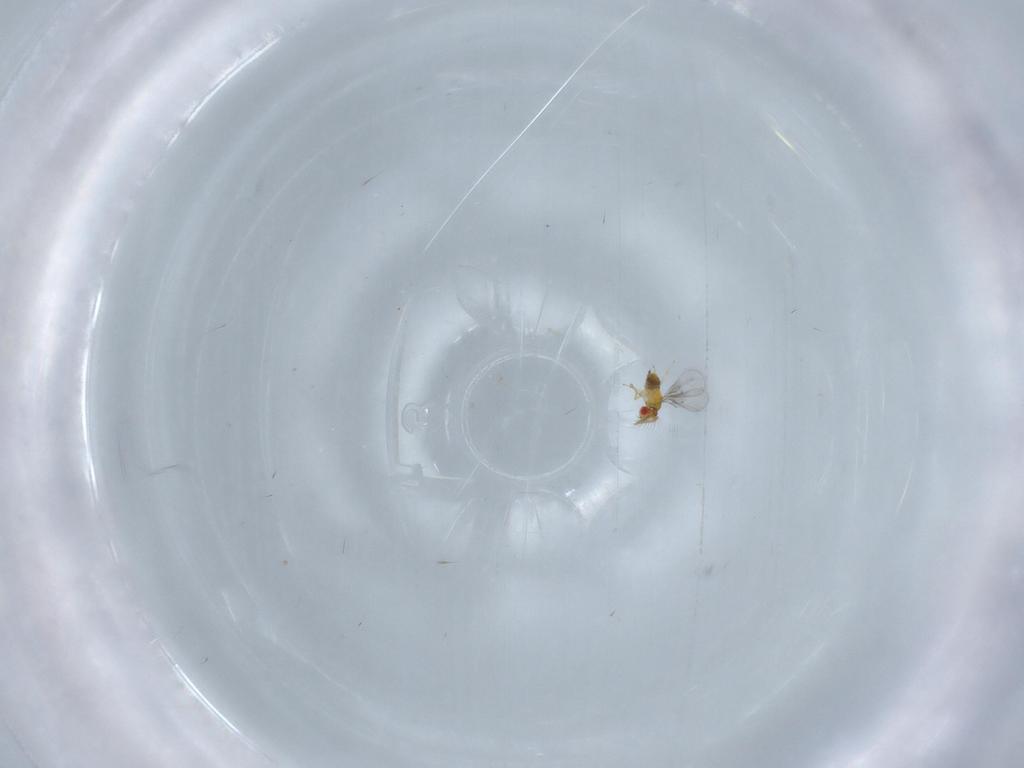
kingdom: Animalia
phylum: Arthropoda
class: Insecta
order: Hymenoptera
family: Trichogrammatidae
